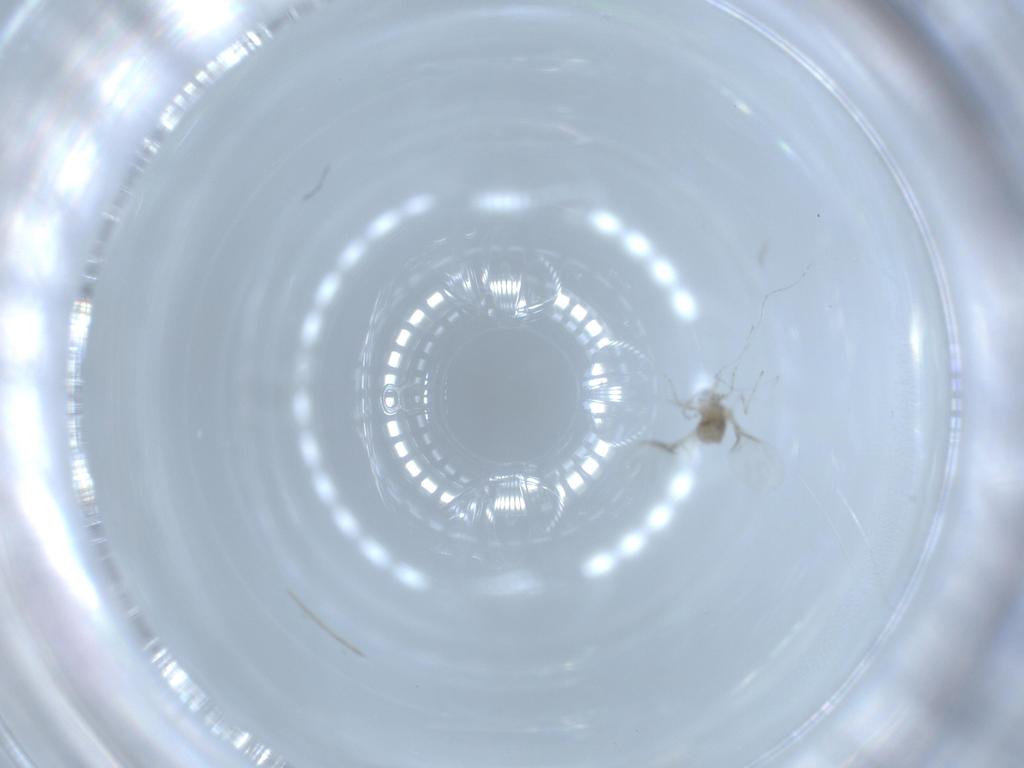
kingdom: Animalia
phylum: Arthropoda
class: Insecta
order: Diptera
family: Cecidomyiidae
